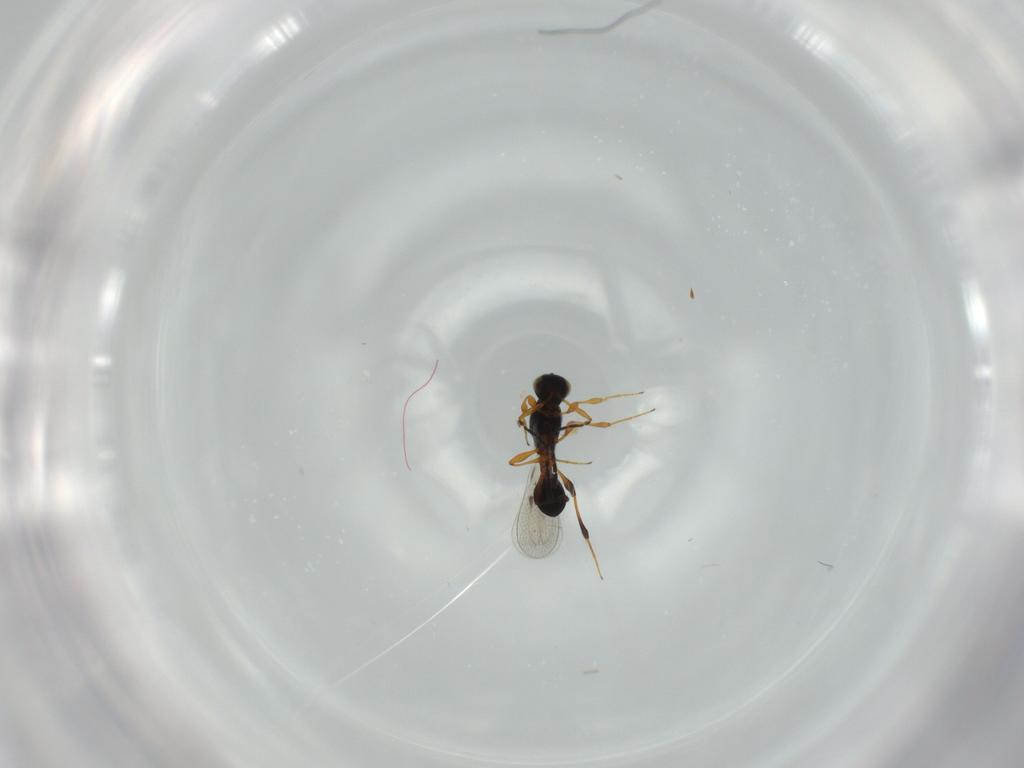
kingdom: Animalia
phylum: Arthropoda
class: Insecta
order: Hymenoptera
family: Platygastridae
